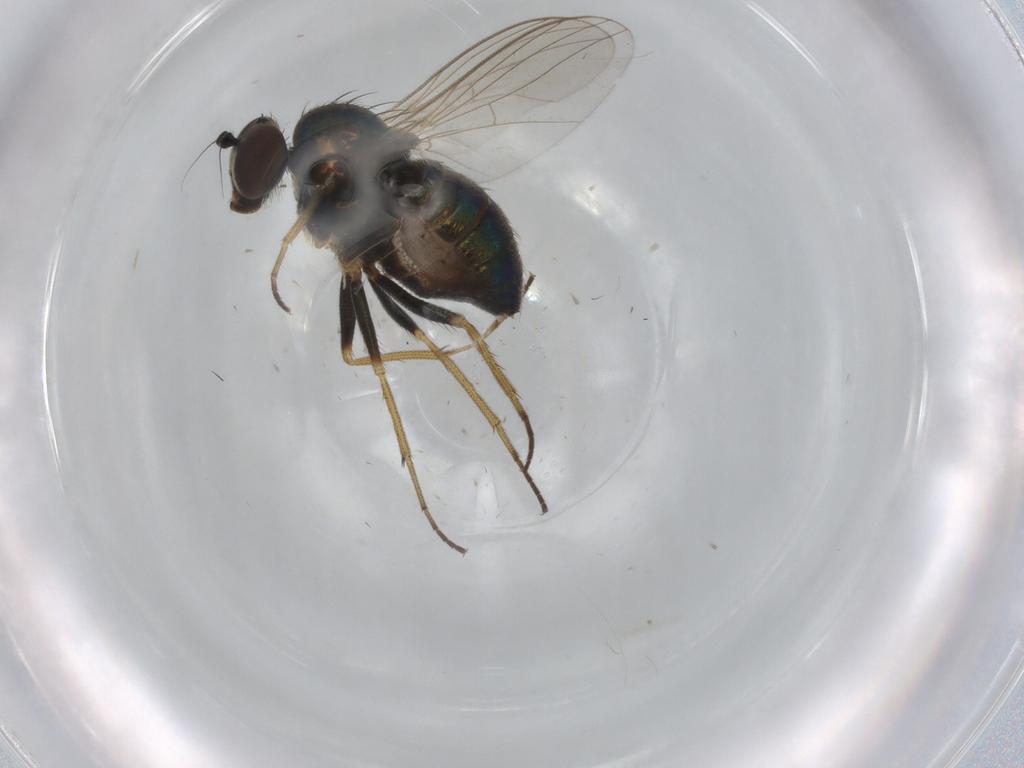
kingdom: Animalia
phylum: Arthropoda
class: Insecta
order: Diptera
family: Dolichopodidae
